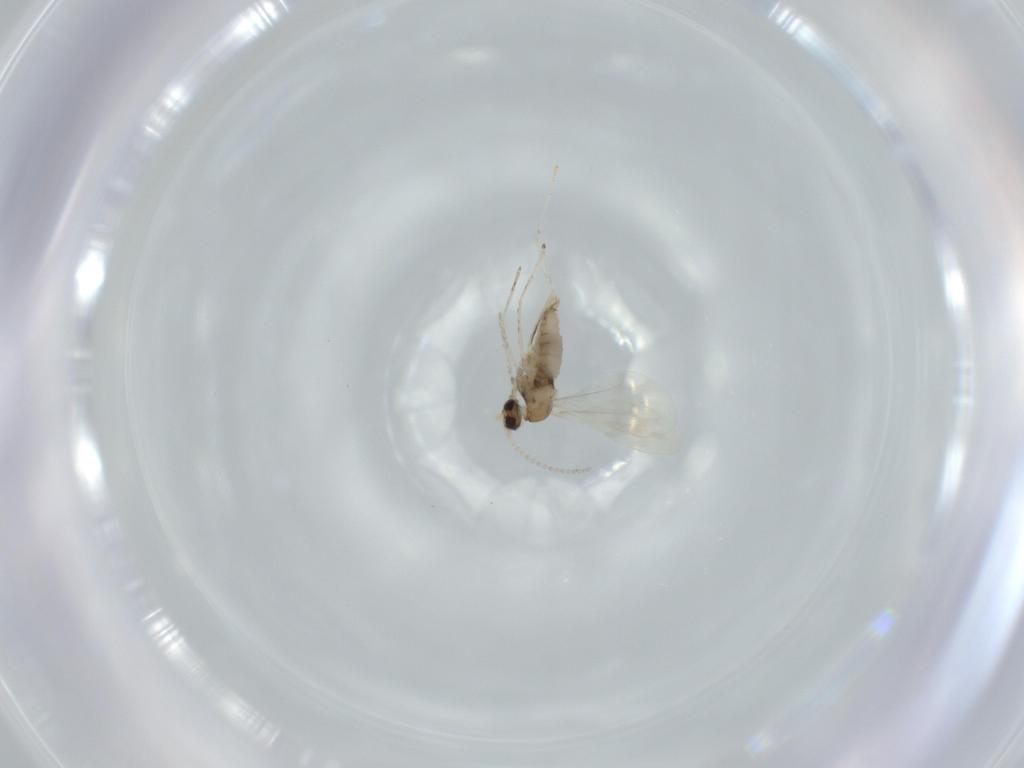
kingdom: Animalia
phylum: Arthropoda
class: Insecta
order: Diptera
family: Cecidomyiidae
